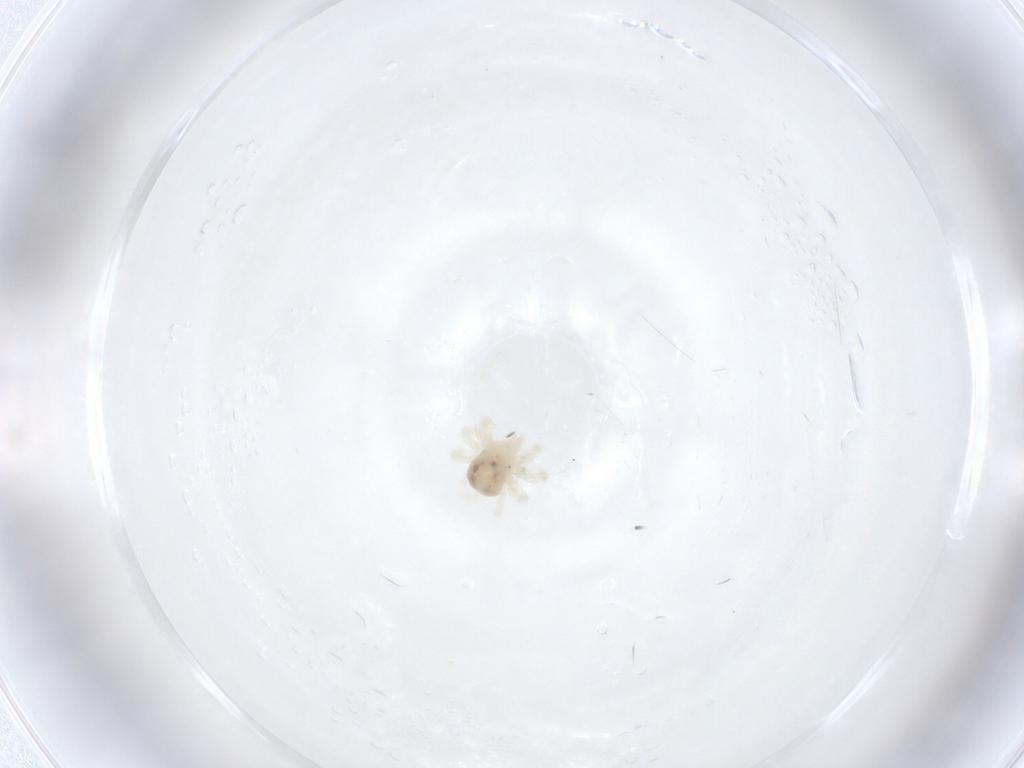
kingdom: Animalia
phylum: Arthropoda
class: Arachnida
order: Trombidiformes
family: Anystidae
